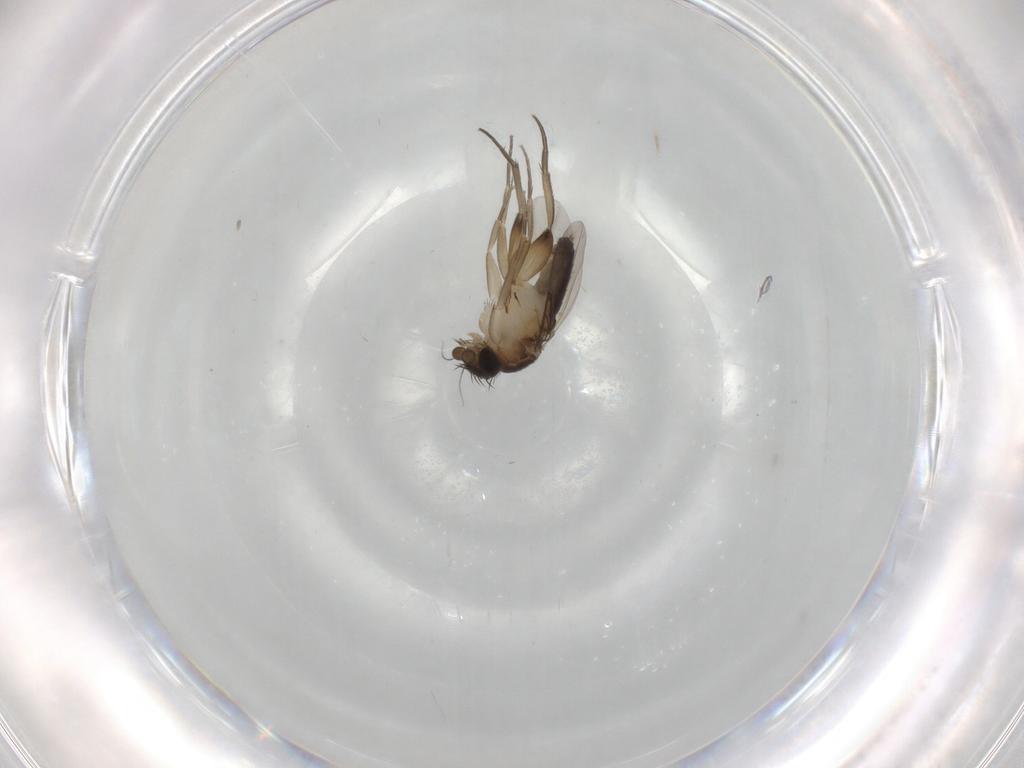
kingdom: Animalia
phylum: Arthropoda
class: Insecta
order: Diptera
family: Phoridae
